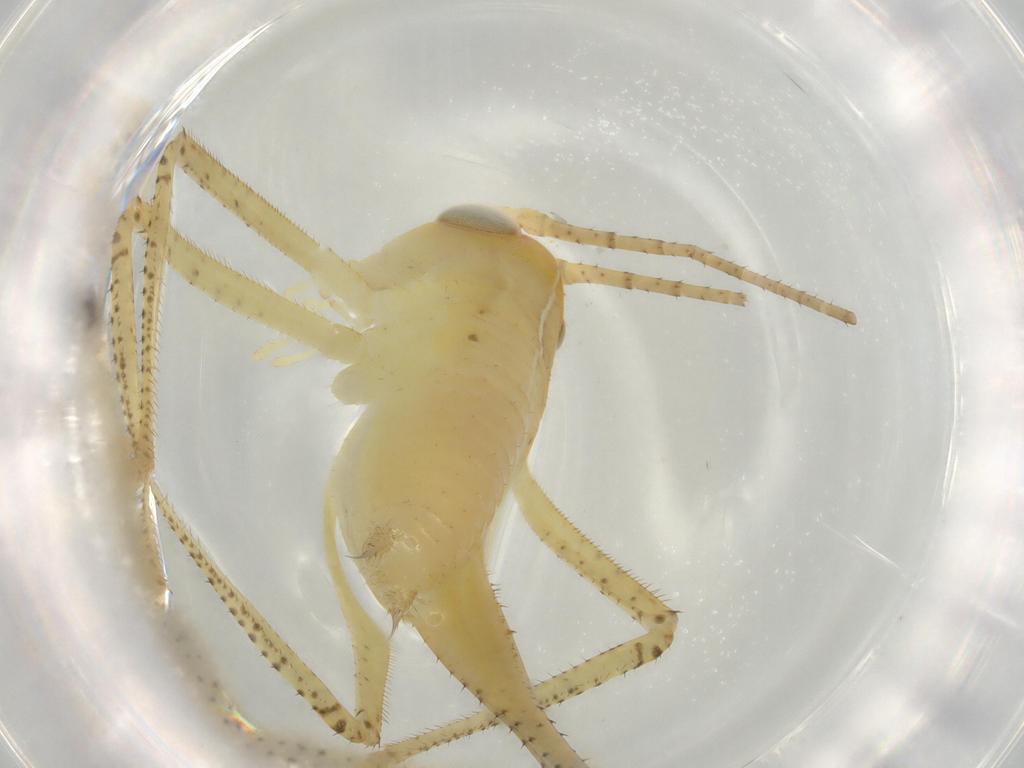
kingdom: Animalia
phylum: Arthropoda
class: Insecta
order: Orthoptera
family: Tettigoniidae
